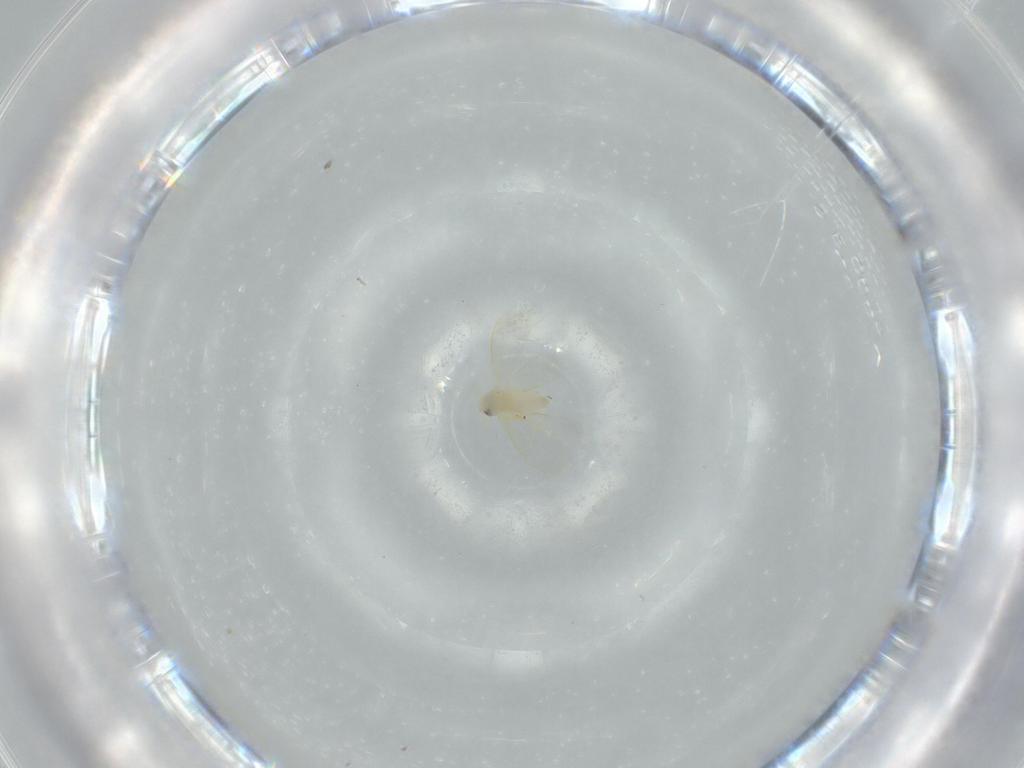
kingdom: Animalia
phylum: Arthropoda
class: Insecta
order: Hemiptera
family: Aleyrodidae
